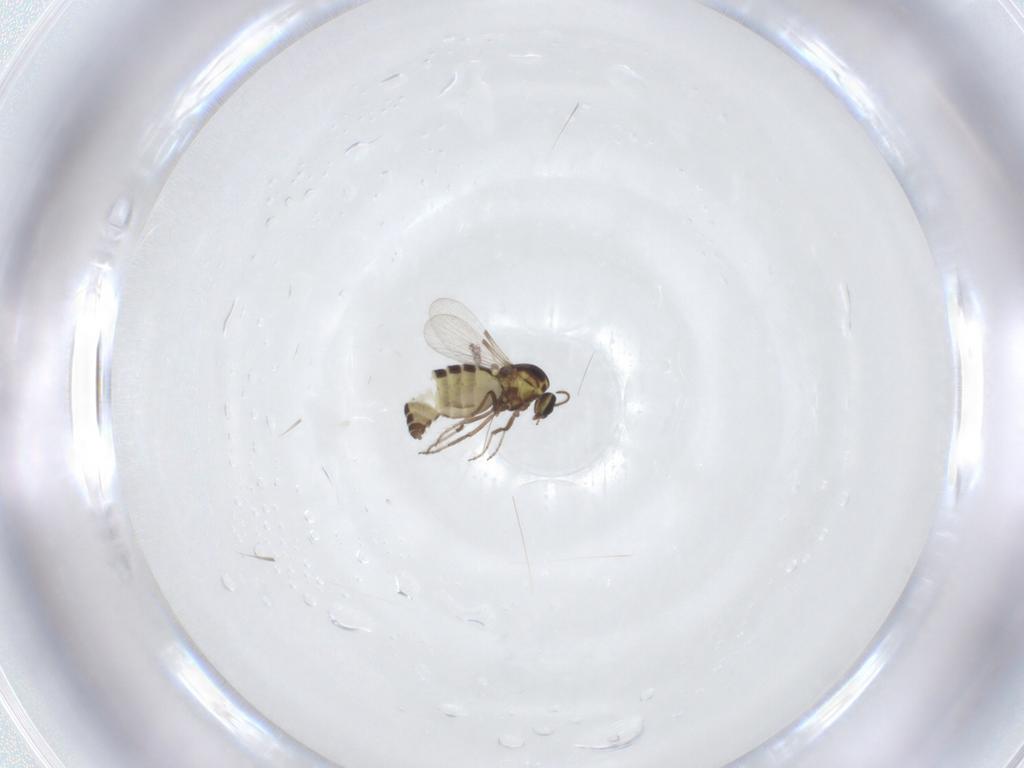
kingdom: Animalia
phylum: Arthropoda
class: Insecta
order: Diptera
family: Ceratopogonidae
